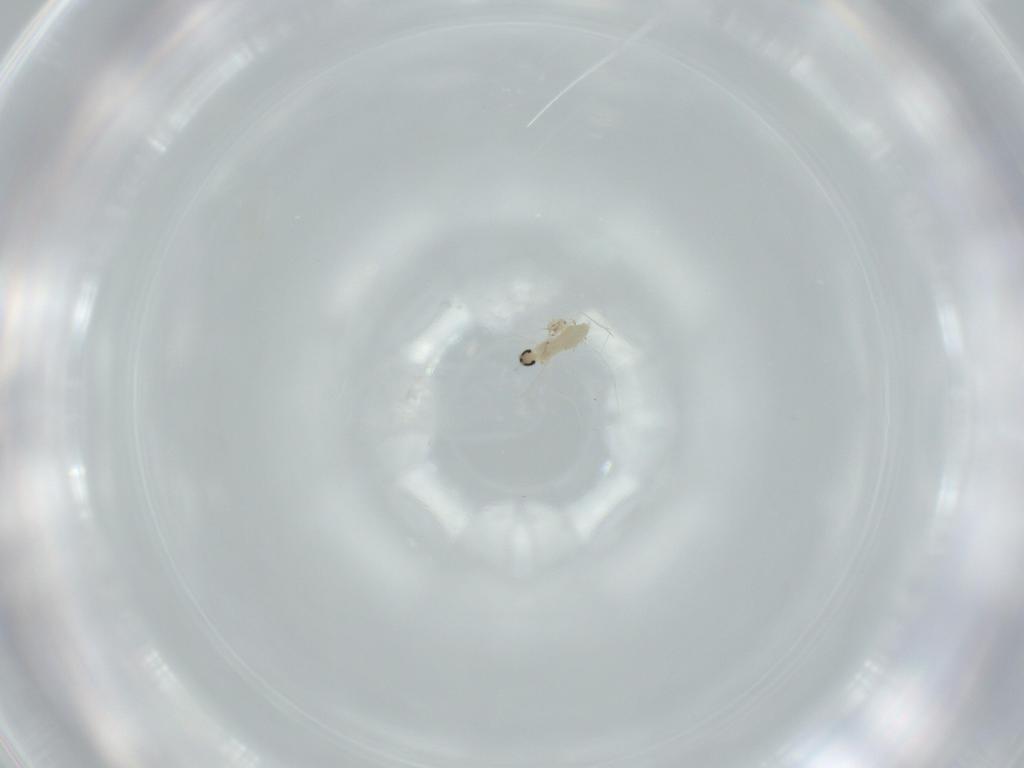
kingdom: Animalia
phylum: Arthropoda
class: Insecta
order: Diptera
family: Cecidomyiidae
